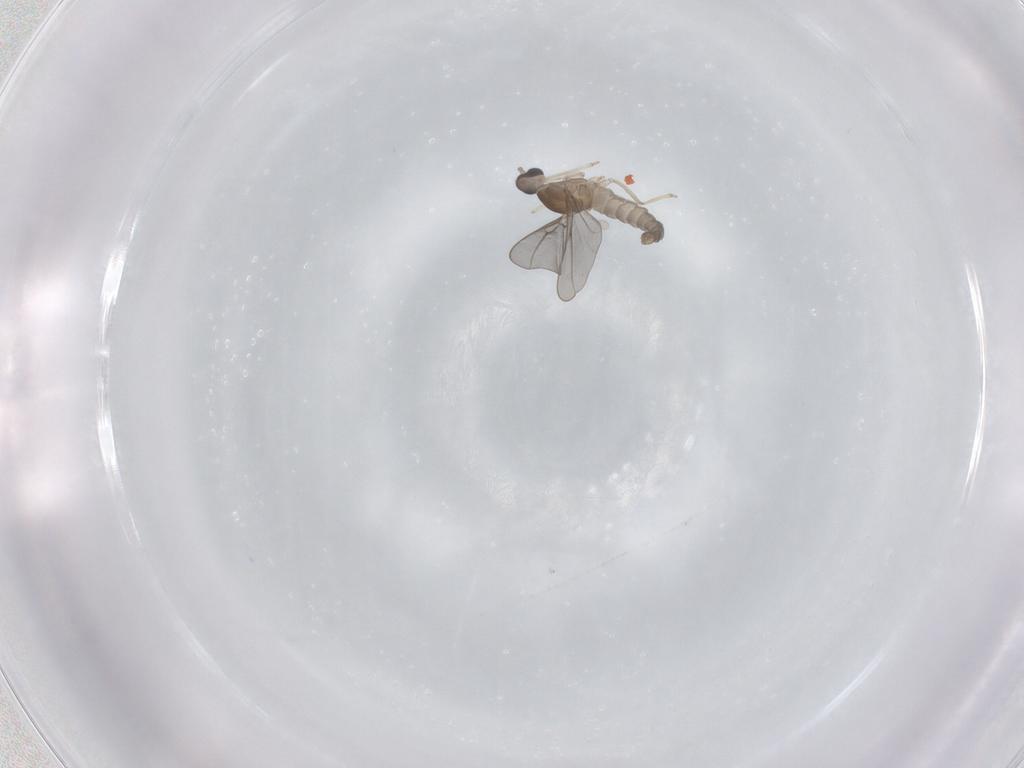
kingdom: Animalia
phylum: Arthropoda
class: Insecta
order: Diptera
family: Cecidomyiidae
